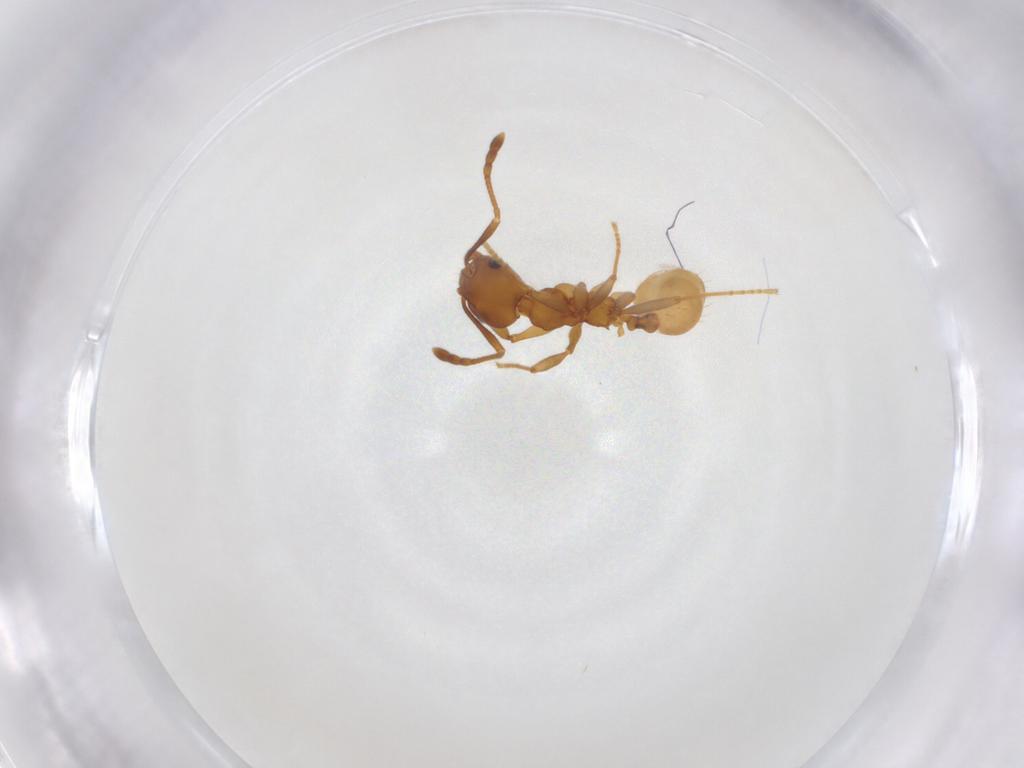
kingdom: Animalia
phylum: Arthropoda
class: Insecta
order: Hymenoptera
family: Formicidae
